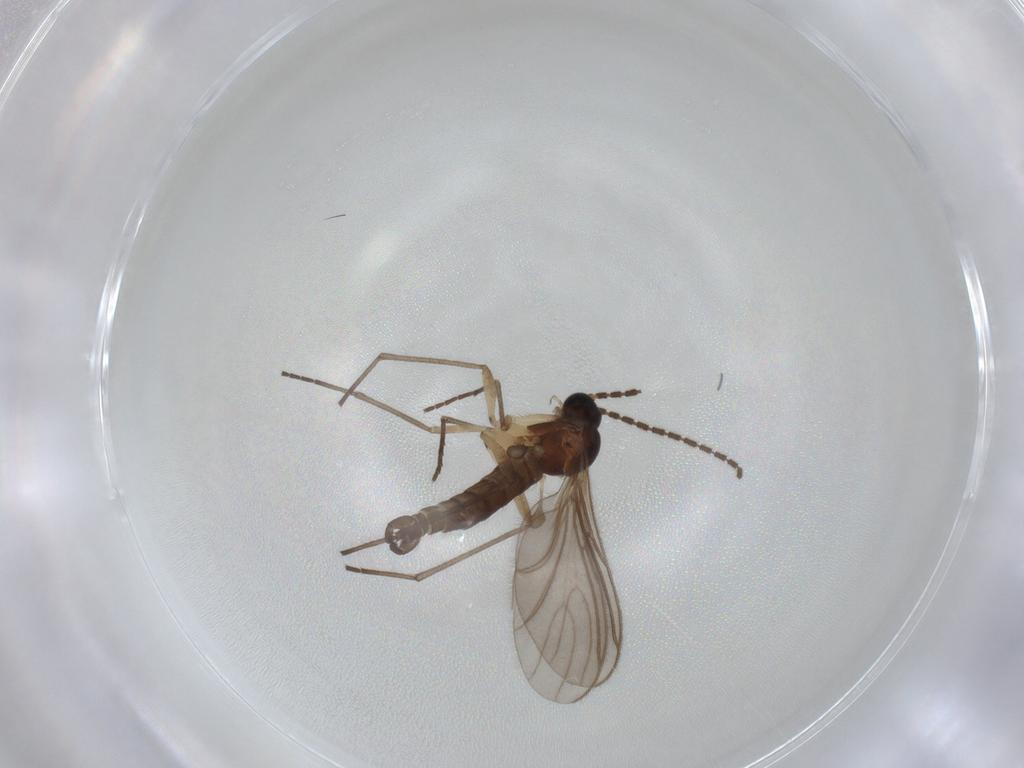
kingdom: Animalia
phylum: Arthropoda
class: Insecta
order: Diptera
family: Sciaridae
